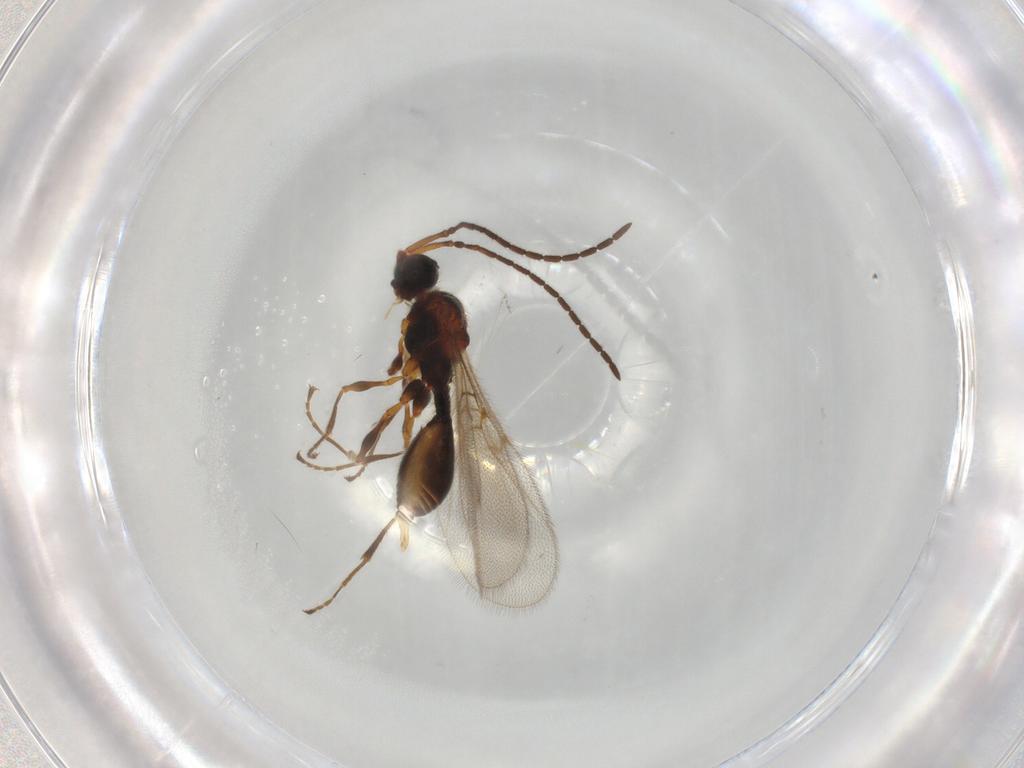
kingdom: Animalia
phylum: Arthropoda
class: Insecta
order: Hymenoptera
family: Diapriidae
